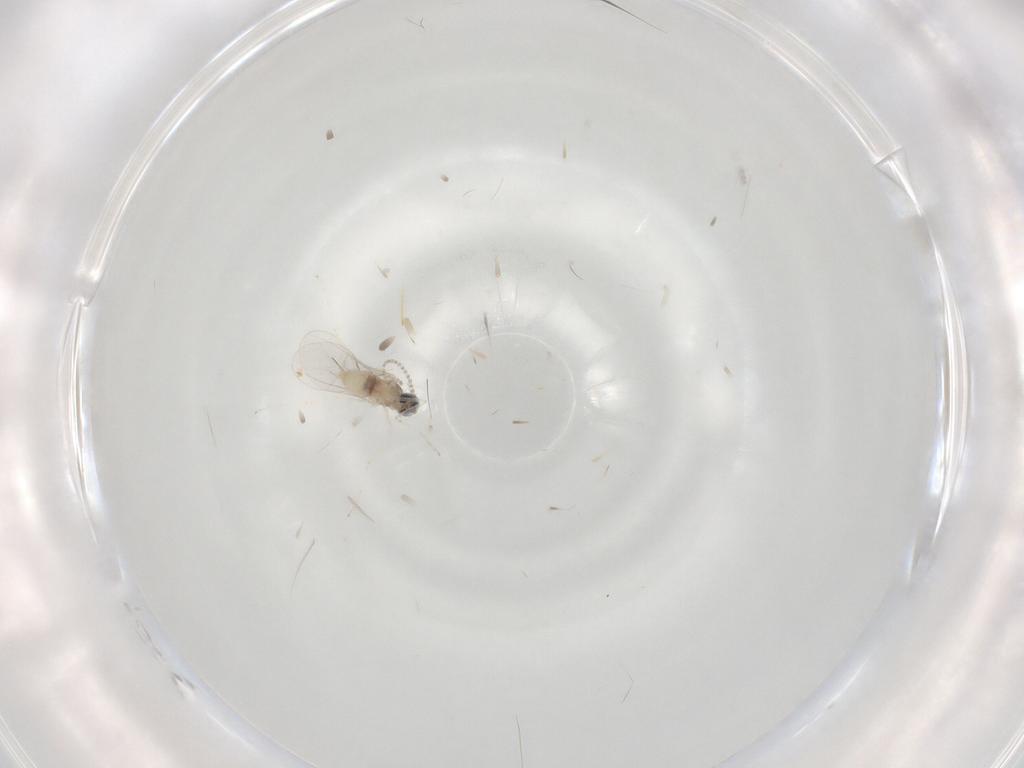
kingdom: Animalia
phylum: Arthropoda
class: Insecta
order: Diptera
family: Cecidomyiidae
